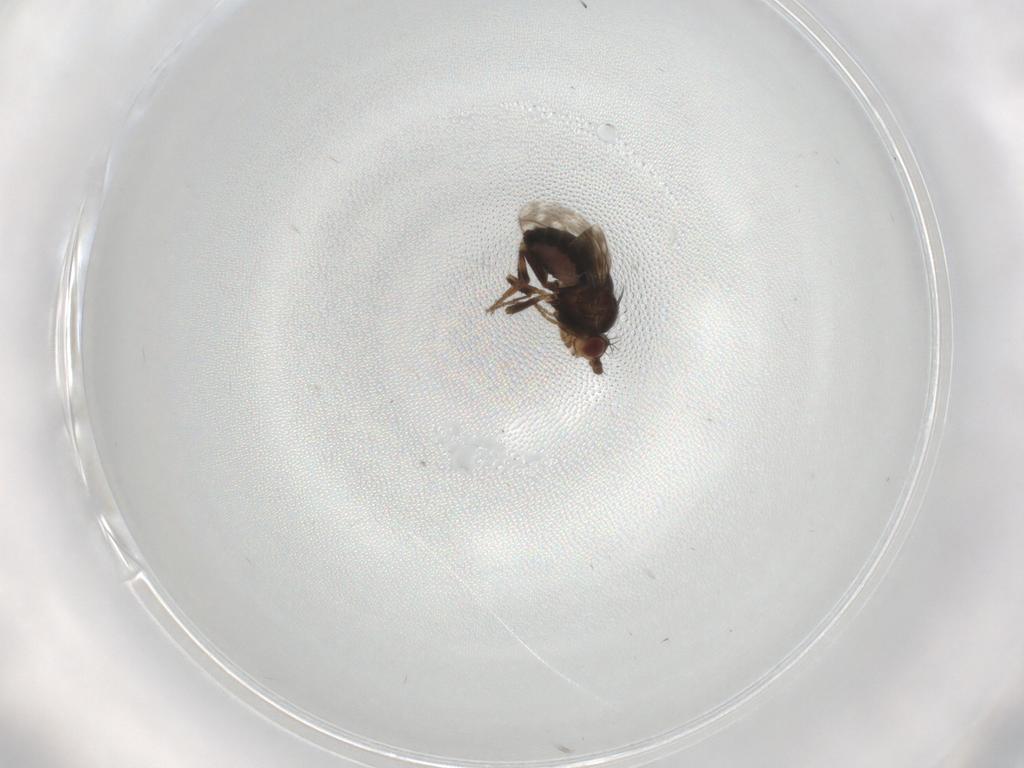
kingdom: Animalia
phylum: Arthropoda
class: Insecta
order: Diptera
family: Sphaeroceridae
